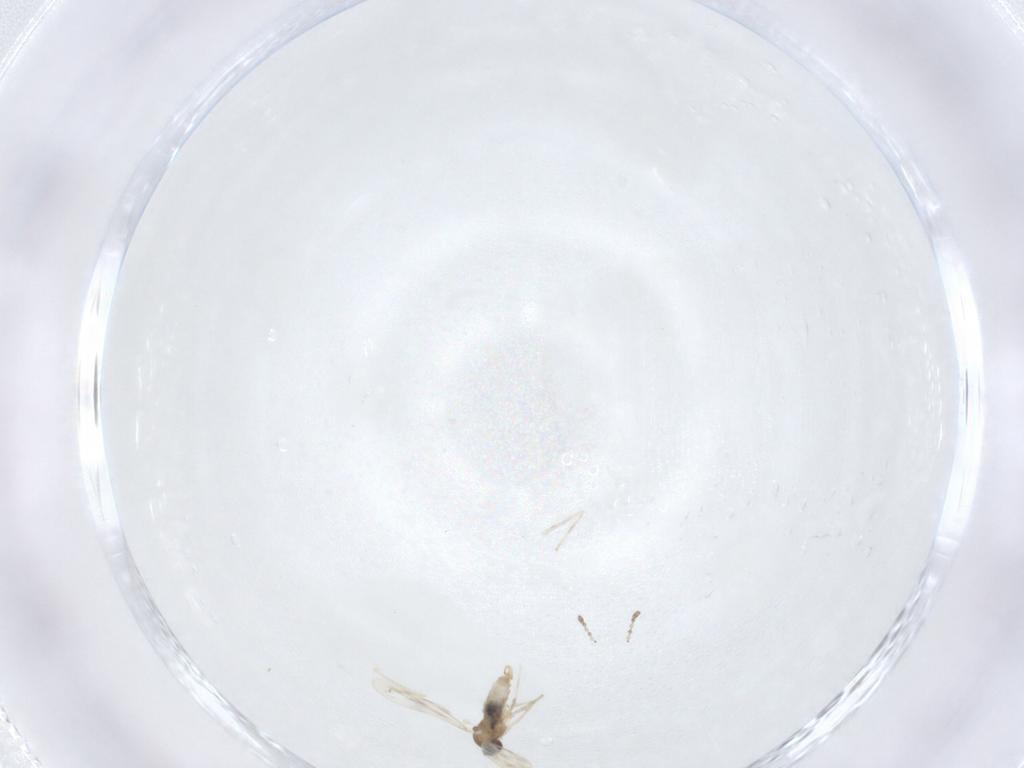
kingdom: Animalia
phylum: Arthropoda
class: Insecta
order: Diptera
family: Cecidomyiidae
